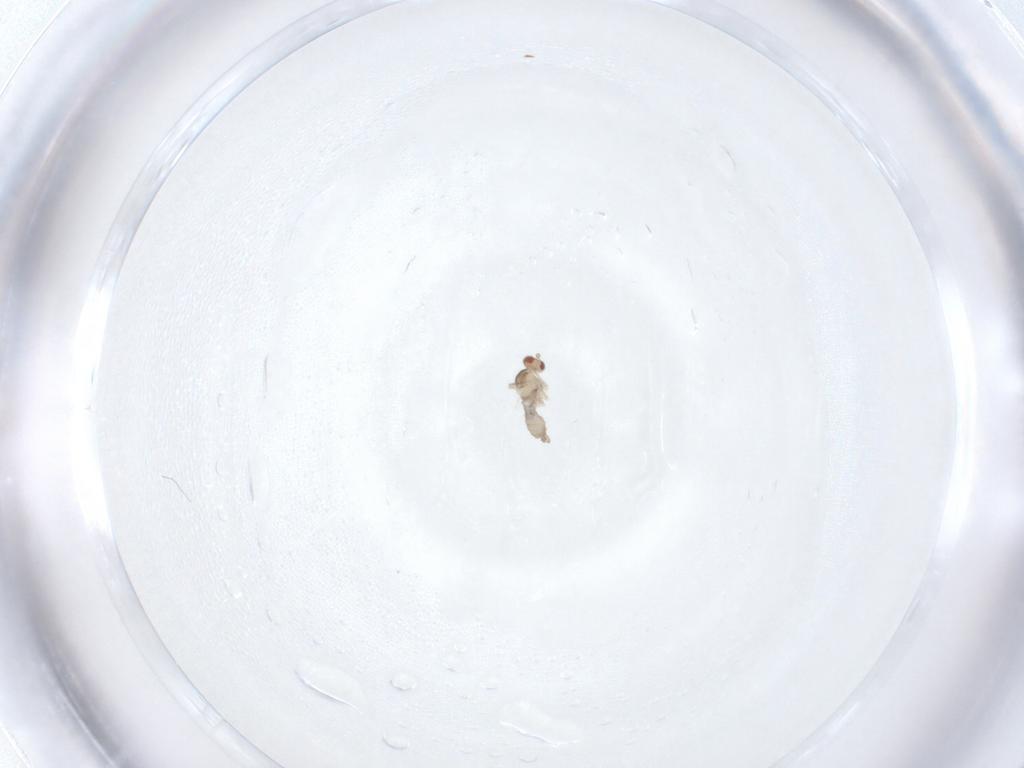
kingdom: Animalia
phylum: Arthropoda
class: Insecta
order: Diptera
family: Cecidomyiidae
